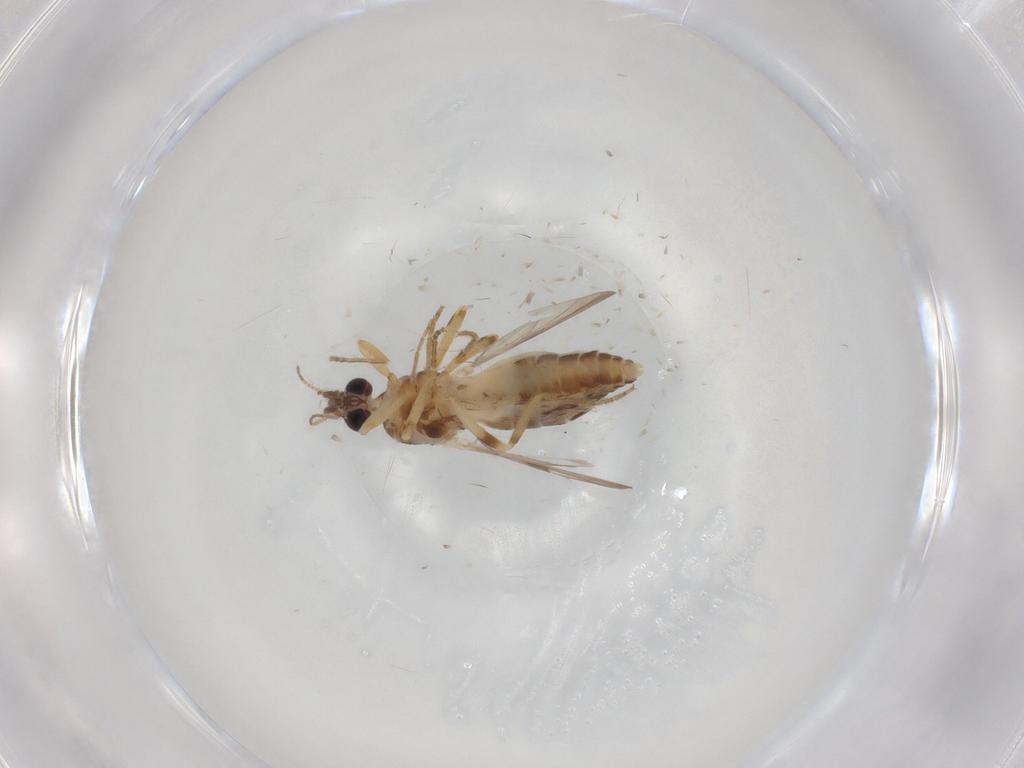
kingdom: Animalia
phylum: Arthropoda
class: Insecta
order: Diptera
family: Ceratopogonidae
